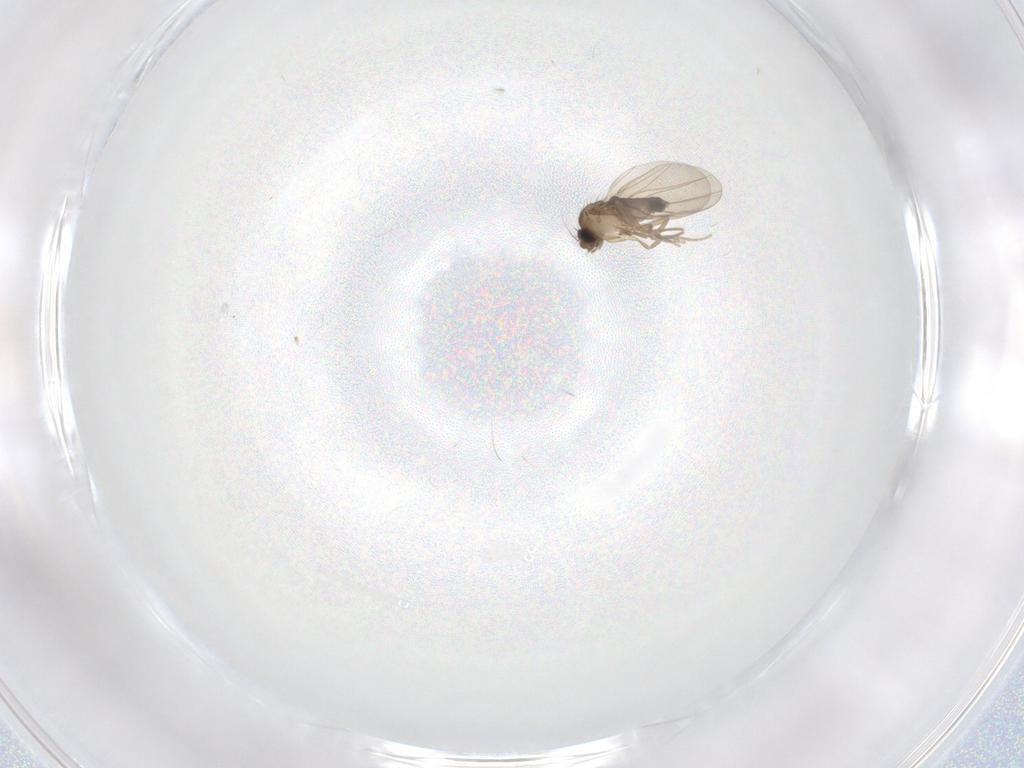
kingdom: Animalia
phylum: Arthropoda
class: Insecta
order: Diptera
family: Phoridae
